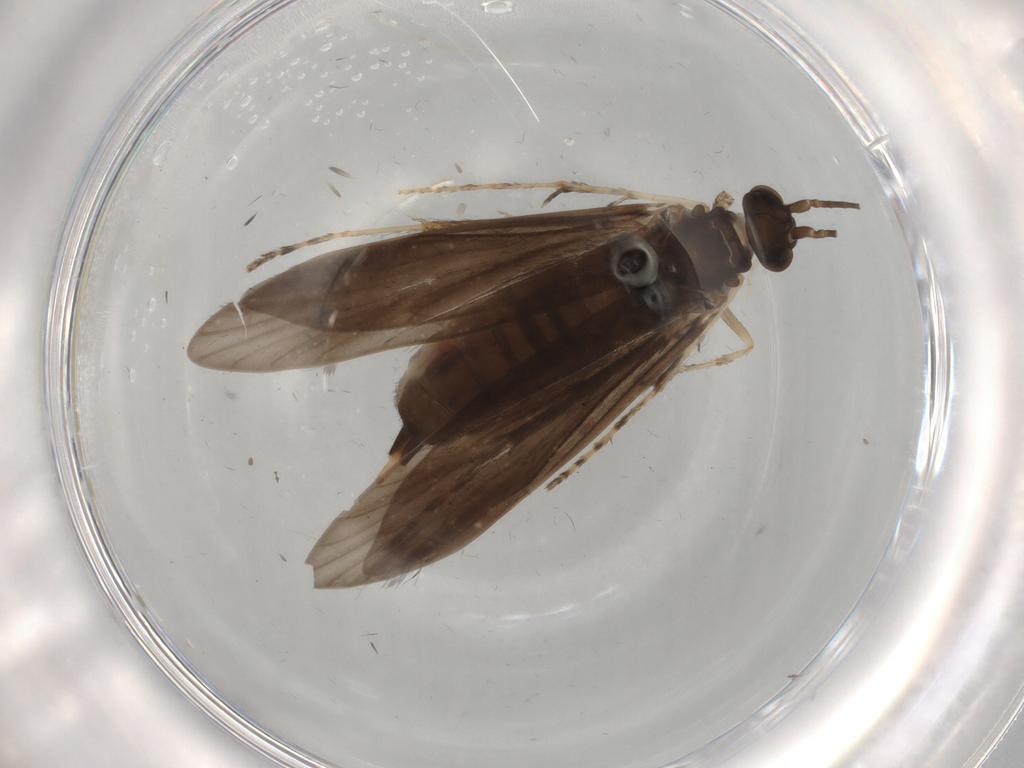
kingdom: Animalia
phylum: Arthropoda
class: Insecta
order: Trichoptera
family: Xiphocentronidae
